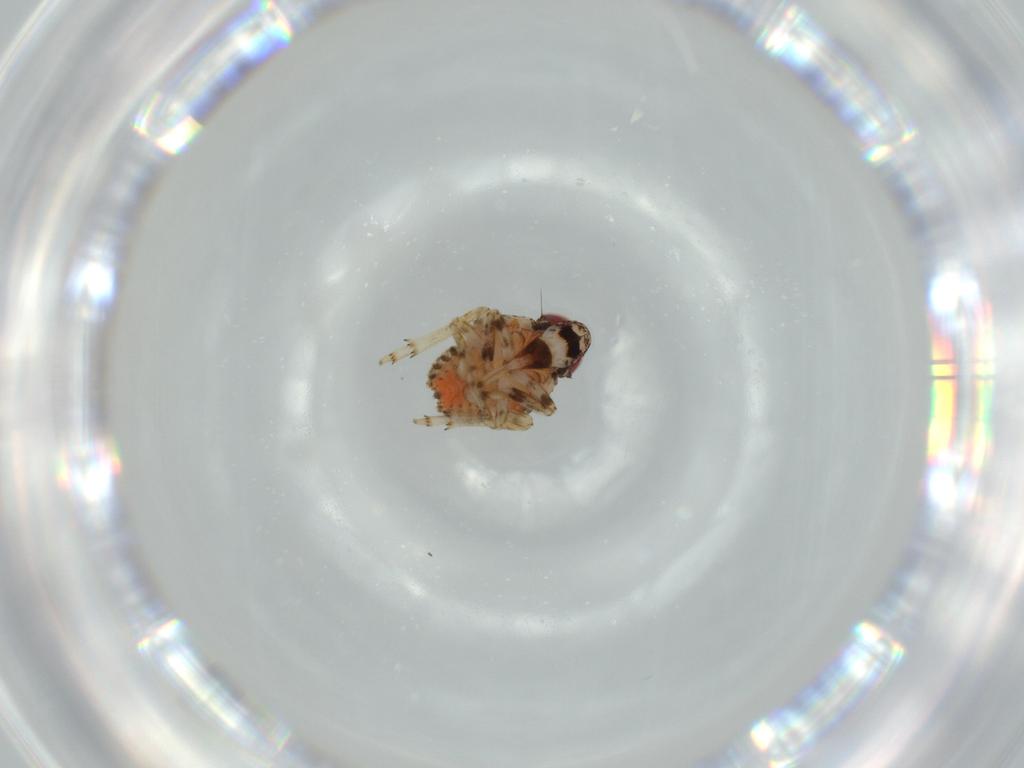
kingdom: Animalia
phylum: Arthropoda
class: Insecta
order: Hemiptera
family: Issidae
